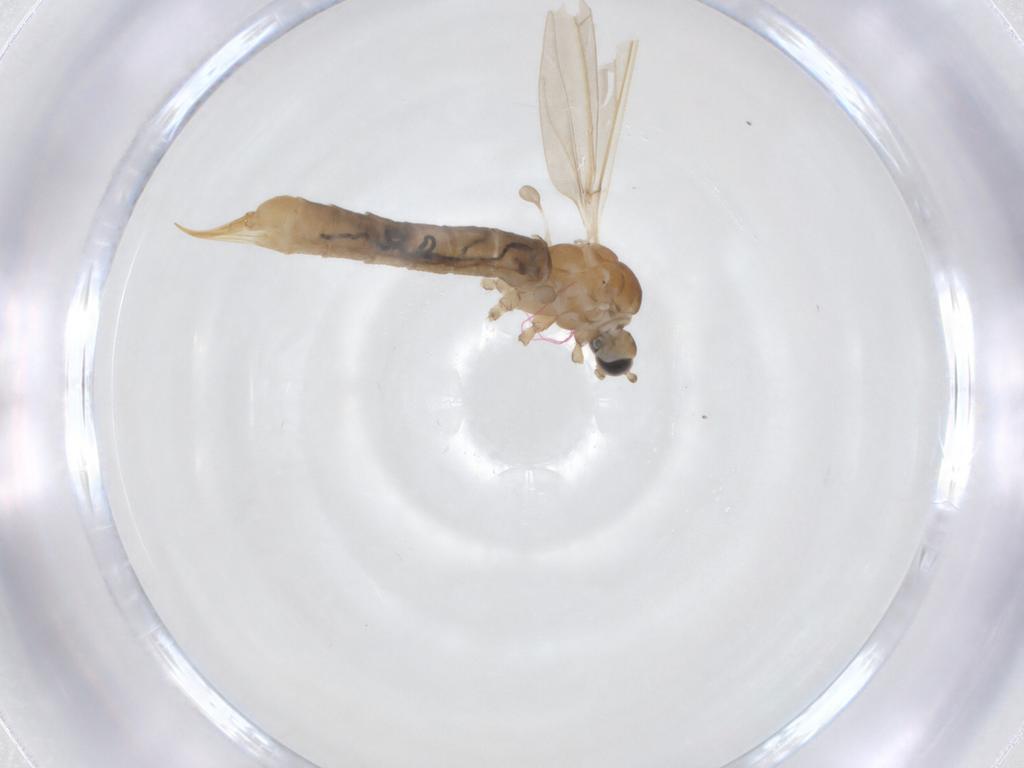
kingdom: Animalia
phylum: Arthropoda
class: Insecta
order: Diptera
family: Limoniidae
